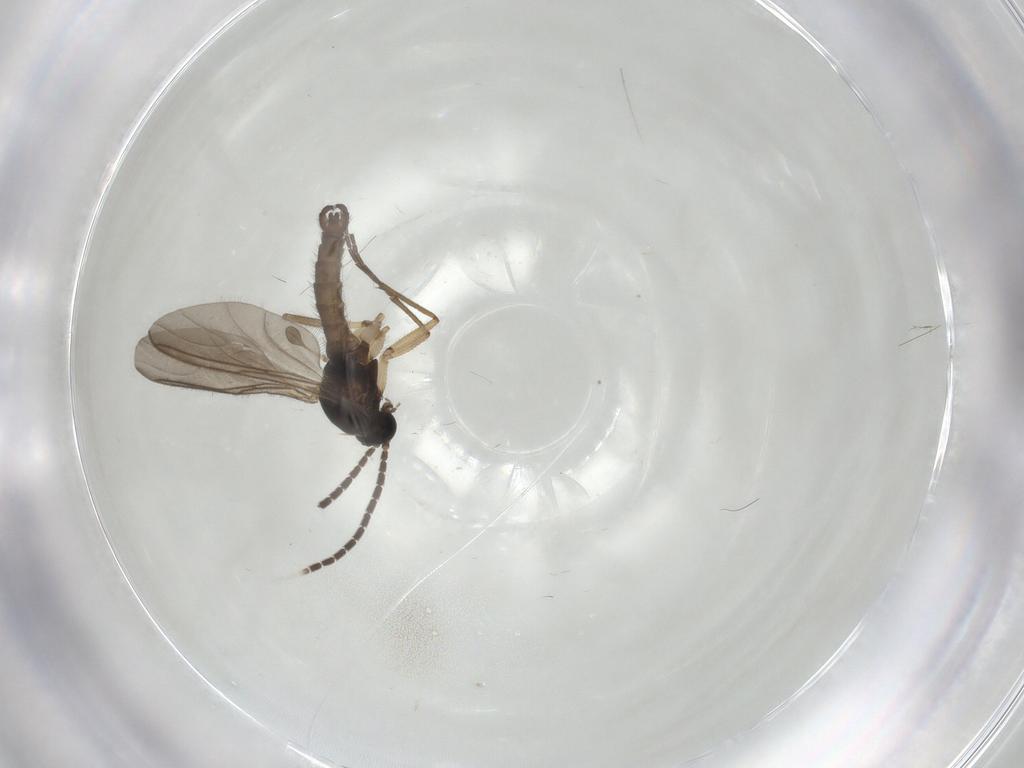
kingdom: Animalia
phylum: Arthropoda
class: Insecta
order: Diptera
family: Sciaridae
